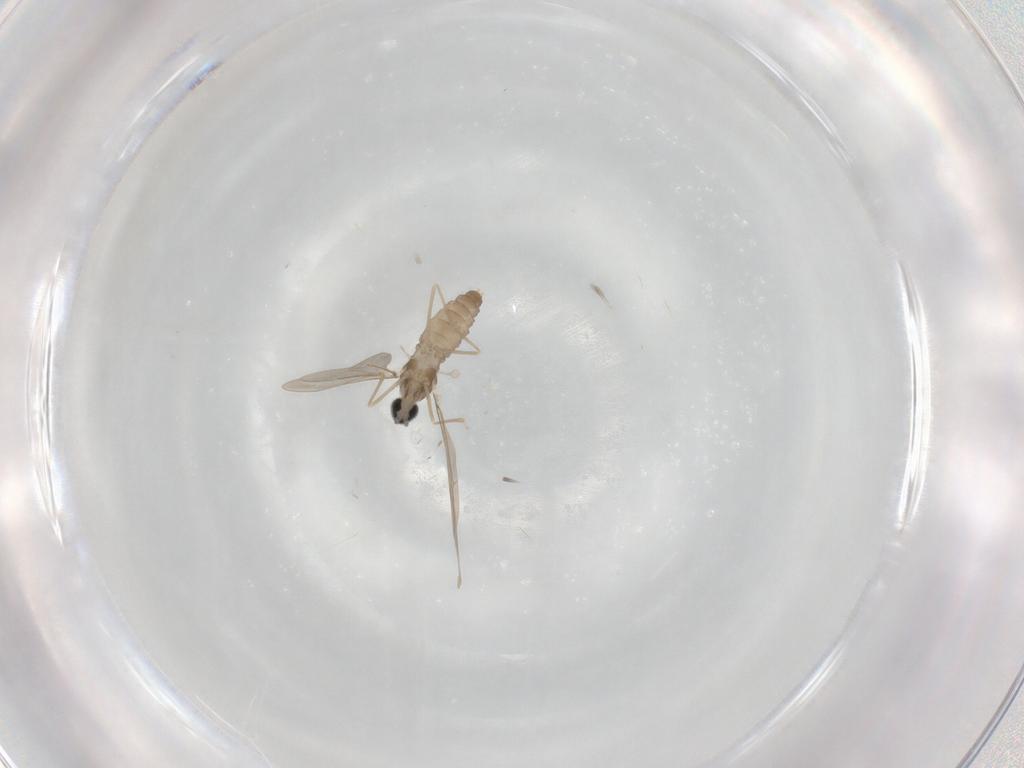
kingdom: Animalia
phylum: Arthropoda
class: Insecta
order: Diptera
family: Cecidomyiidae
